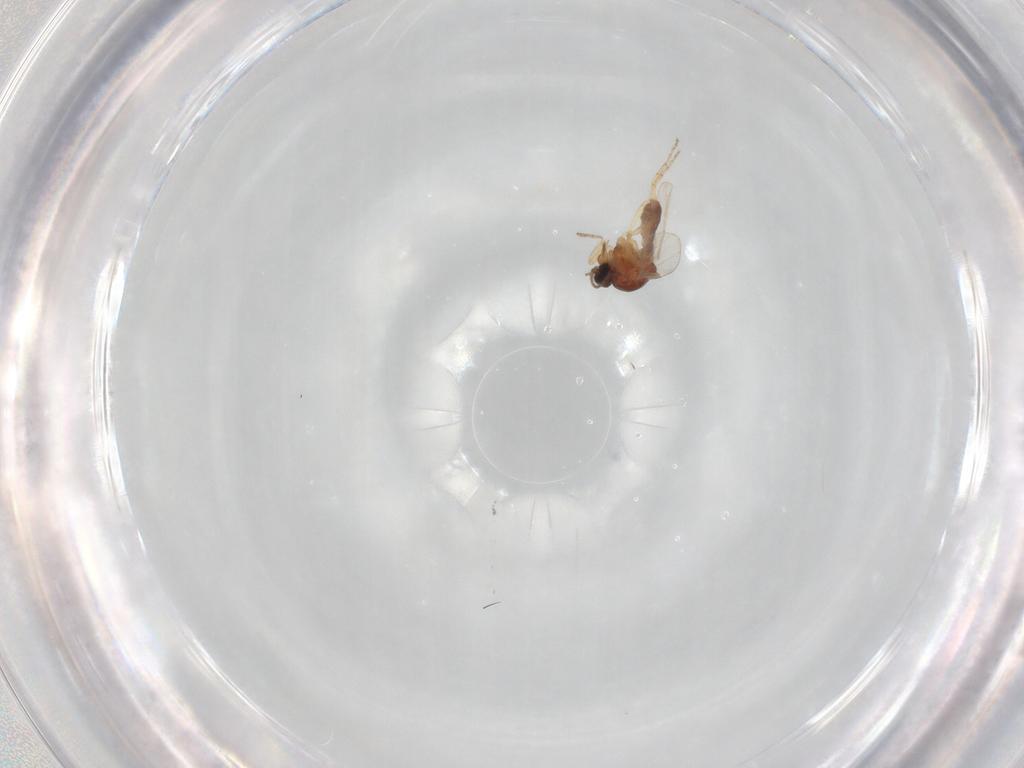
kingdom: Animalia
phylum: Arthropoda
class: Insecta
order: Diptera
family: Ceratopogonidae
